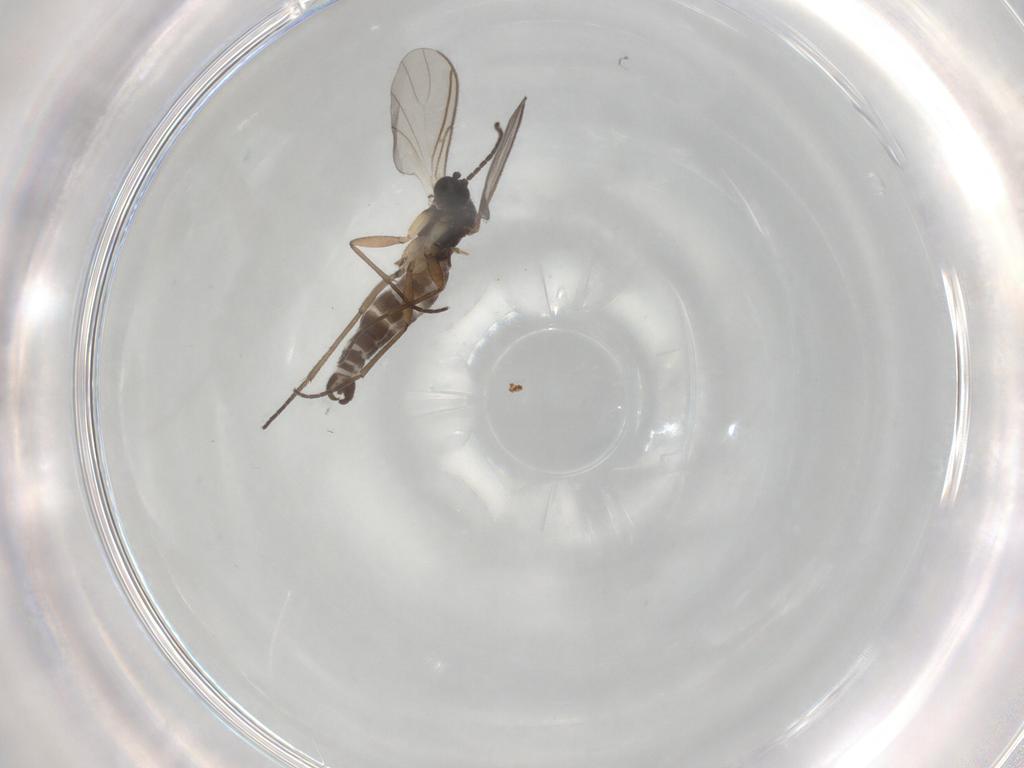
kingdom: Animalia
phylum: Arthropoda
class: Insecta
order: Diptera
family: Sciaridae
